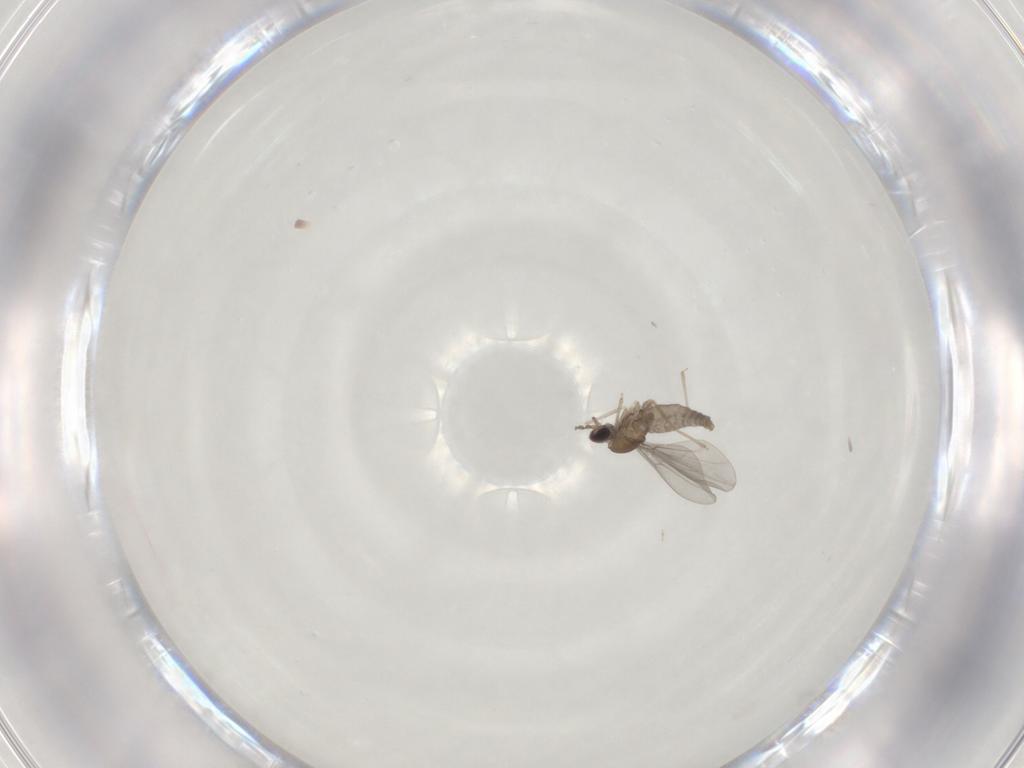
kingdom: Animalia
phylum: Arthropoda
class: Insecta
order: Diptera
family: Cecidomyiidae
